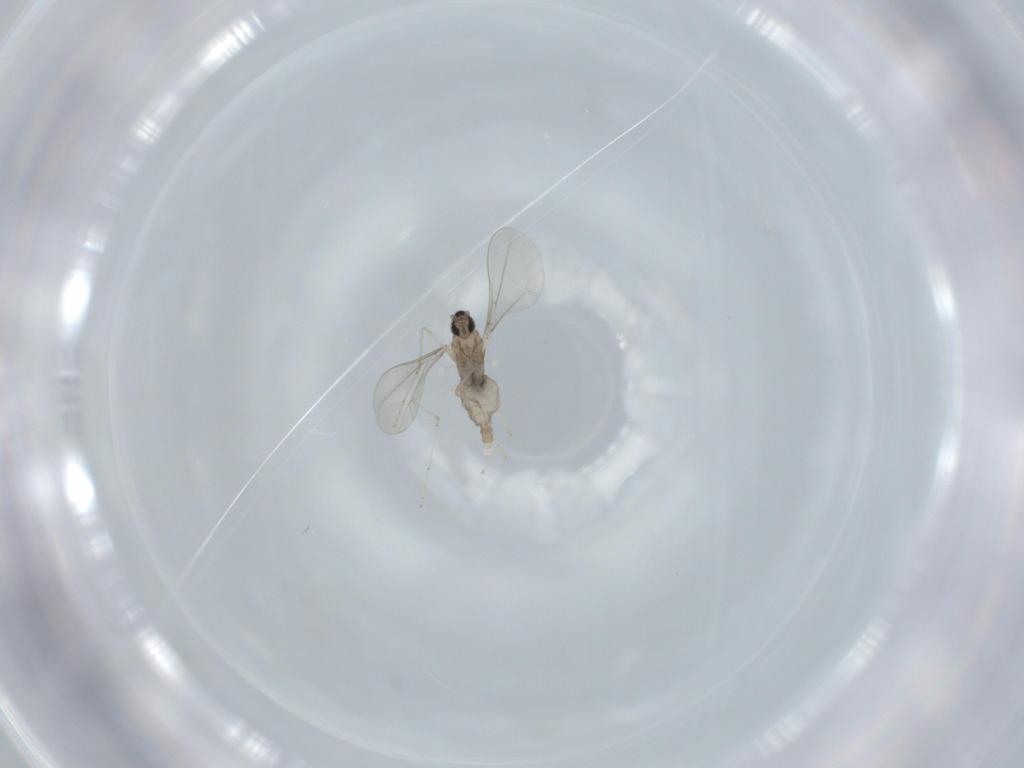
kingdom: Animalia
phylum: Arthropoda
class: Insecta
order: Diptera
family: Cecidomyiidae
